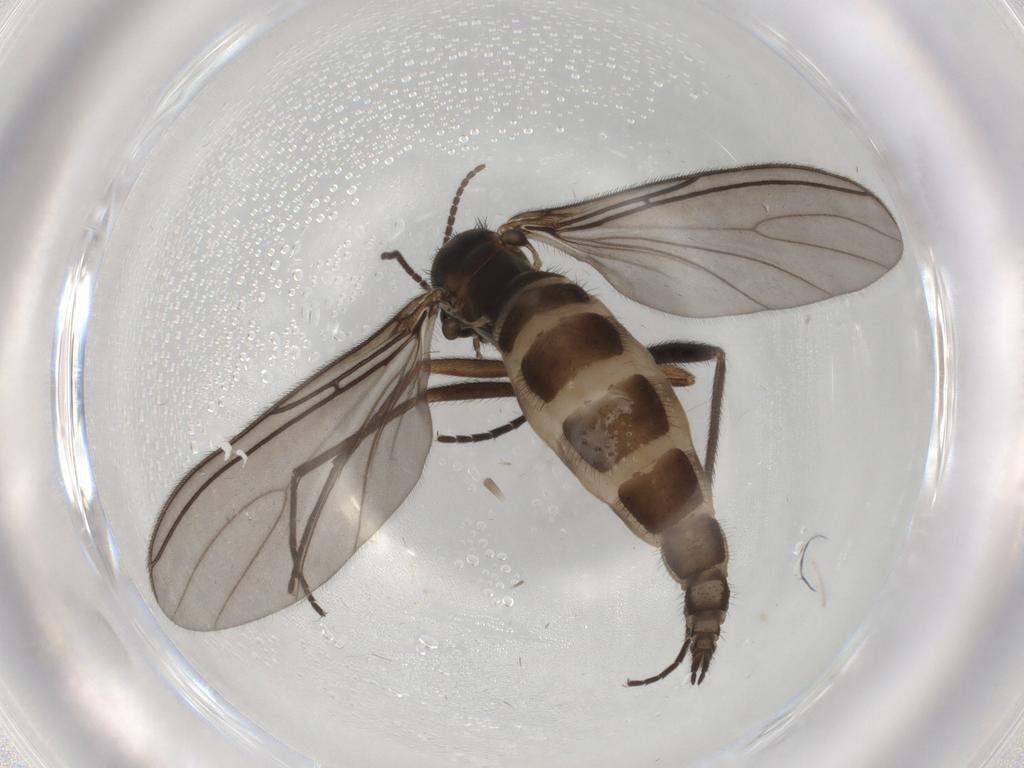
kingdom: Animalia
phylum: Arthropoda
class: Insecta
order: Diptera
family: Sciaridae
